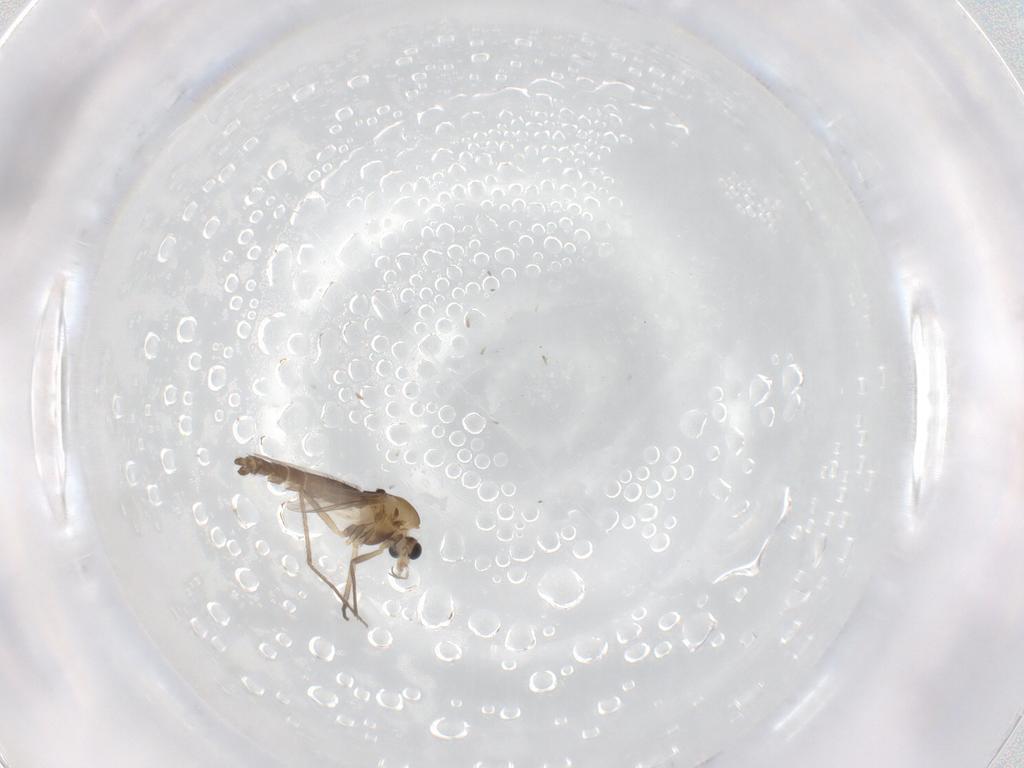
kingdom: Animalia
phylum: Arthropoda
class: Insecta
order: Diptera
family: Chironomidae
